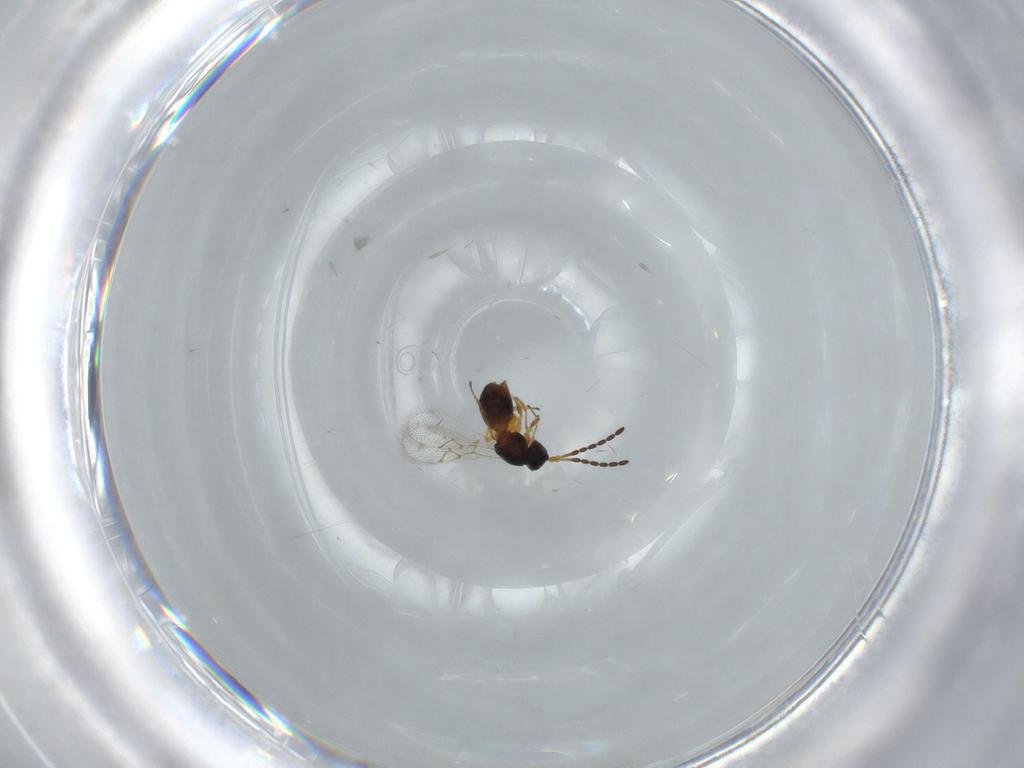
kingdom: Animalia
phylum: Arthropoda
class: Insecta
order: Hymenoptera
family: Figitidae
